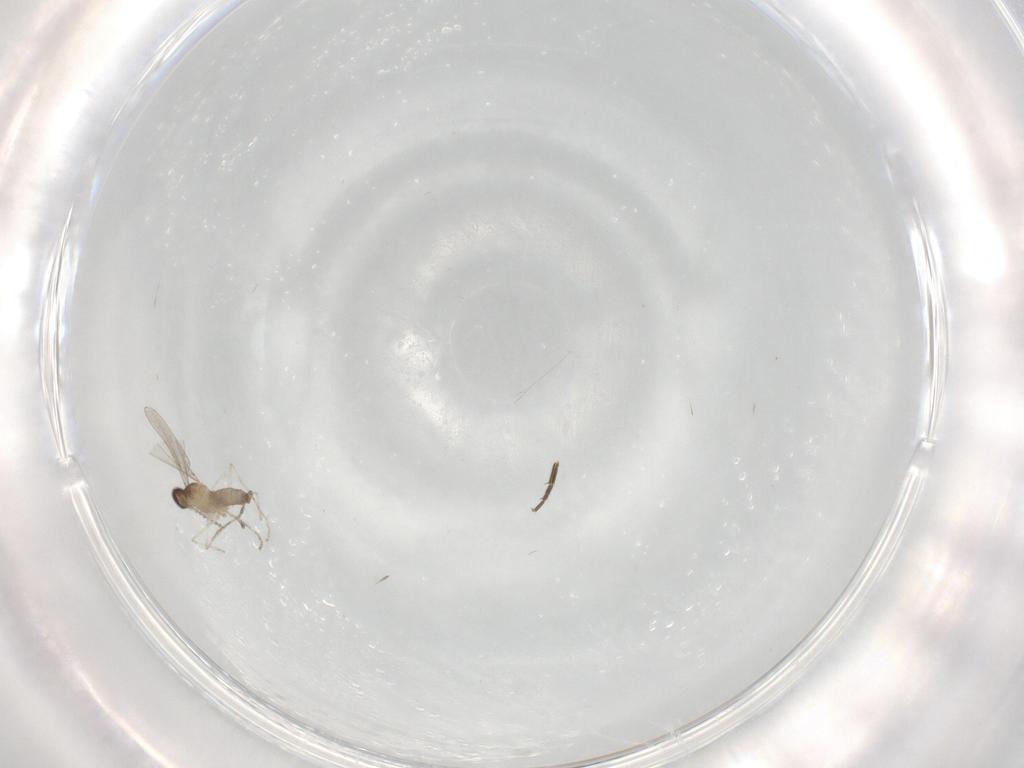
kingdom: Animalia
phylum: Arthropoda
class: Insecta
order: Diptera
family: Cecidomyiidae
